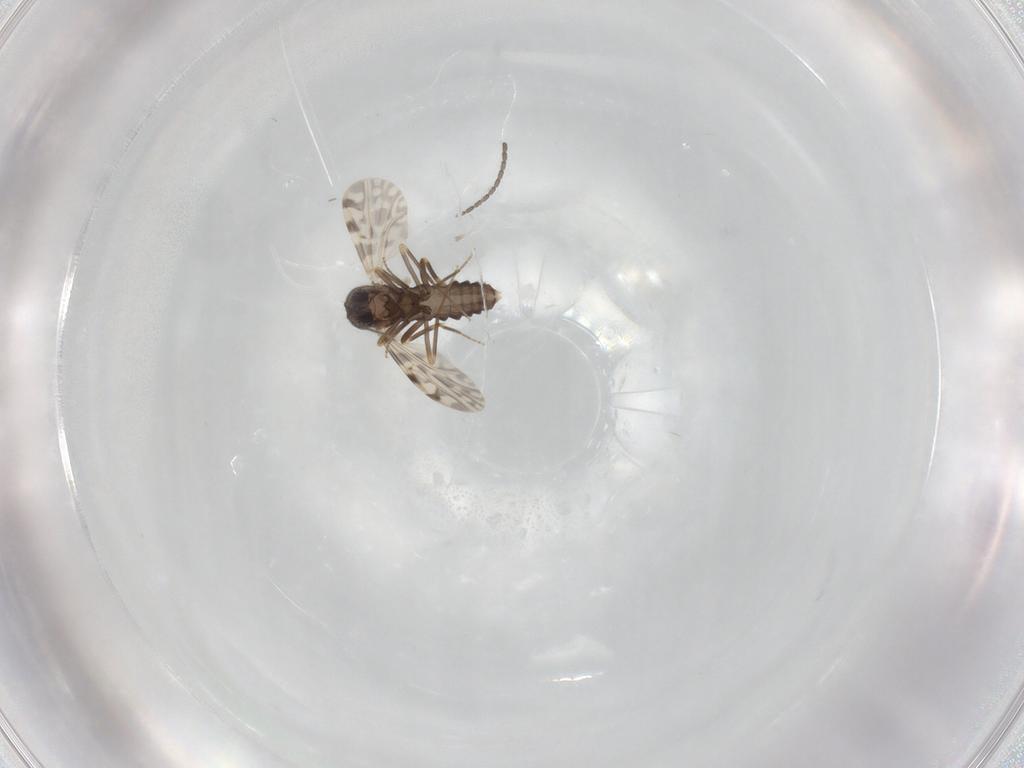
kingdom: Animalia
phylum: Arthropoda
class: Insecta
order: Diptera
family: Cecidomyiidae
